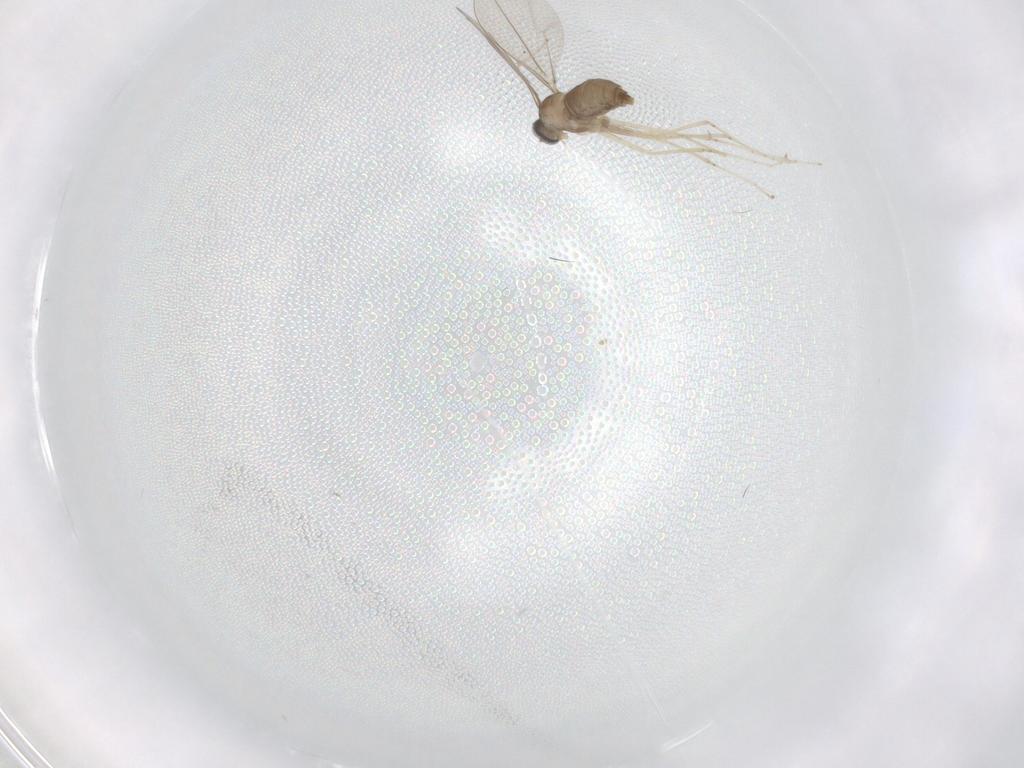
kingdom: Animalia
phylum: Arthropoda
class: Insecta
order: Diptera
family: Cecidomyiidae
